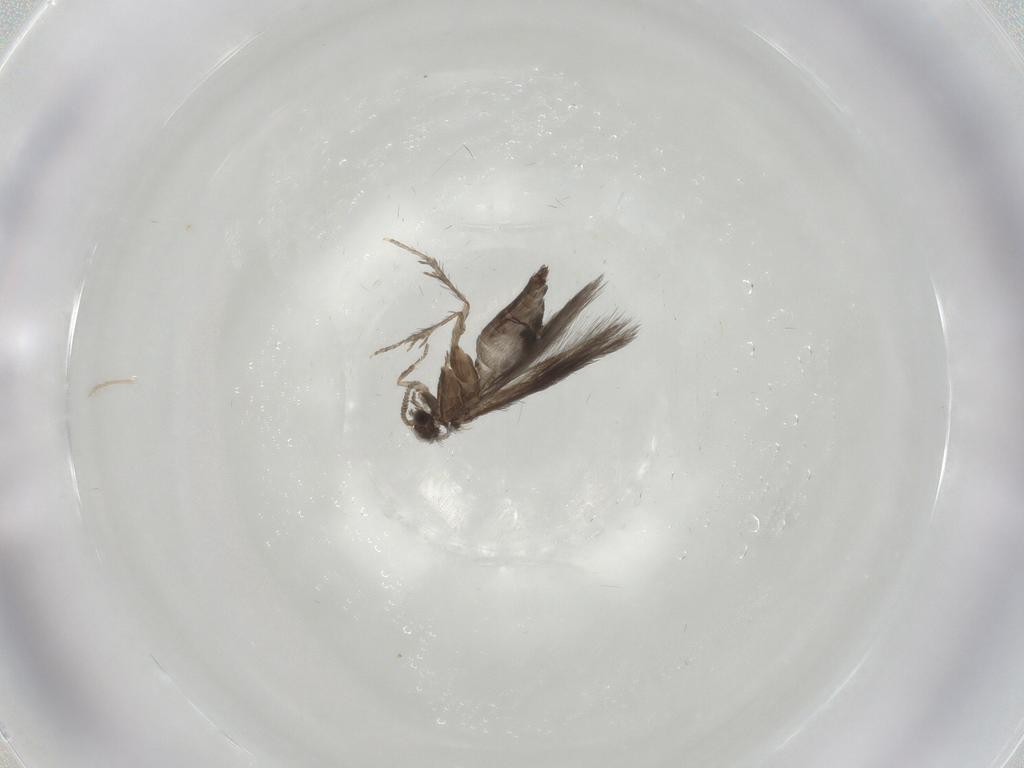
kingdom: Animalia
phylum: Arthropoda
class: Insecta
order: Trichoptera
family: Hydroptilidae
